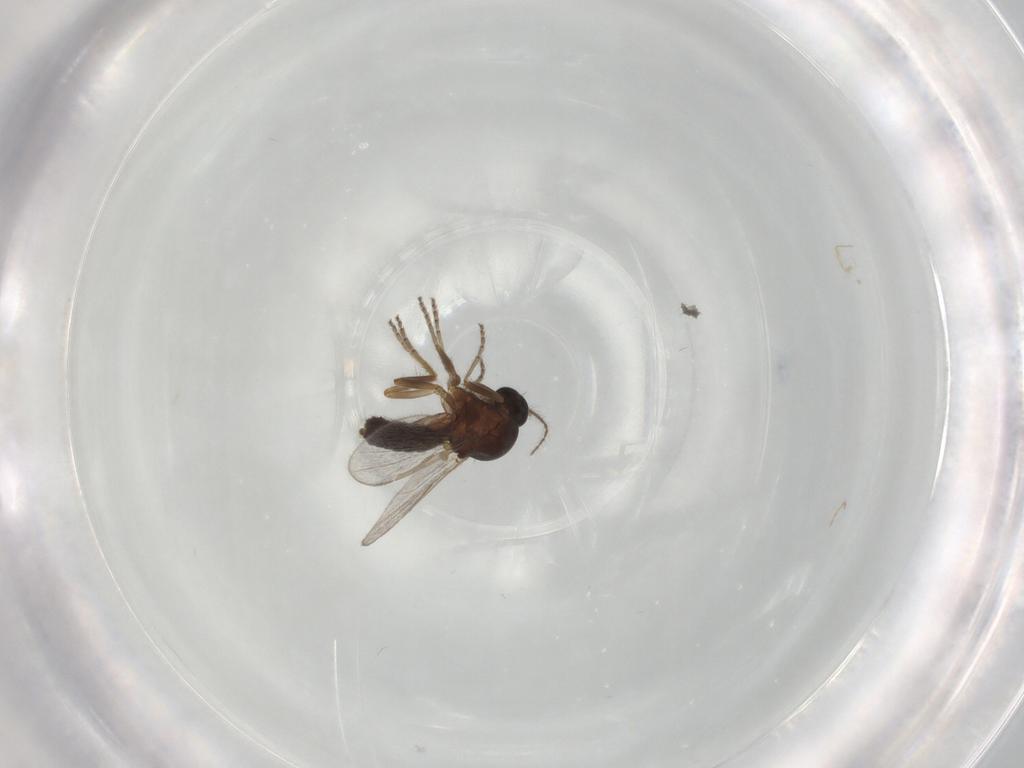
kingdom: Animalia
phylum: Arthropoda
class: Insecta
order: Diptera
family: Ceratopogonidae
